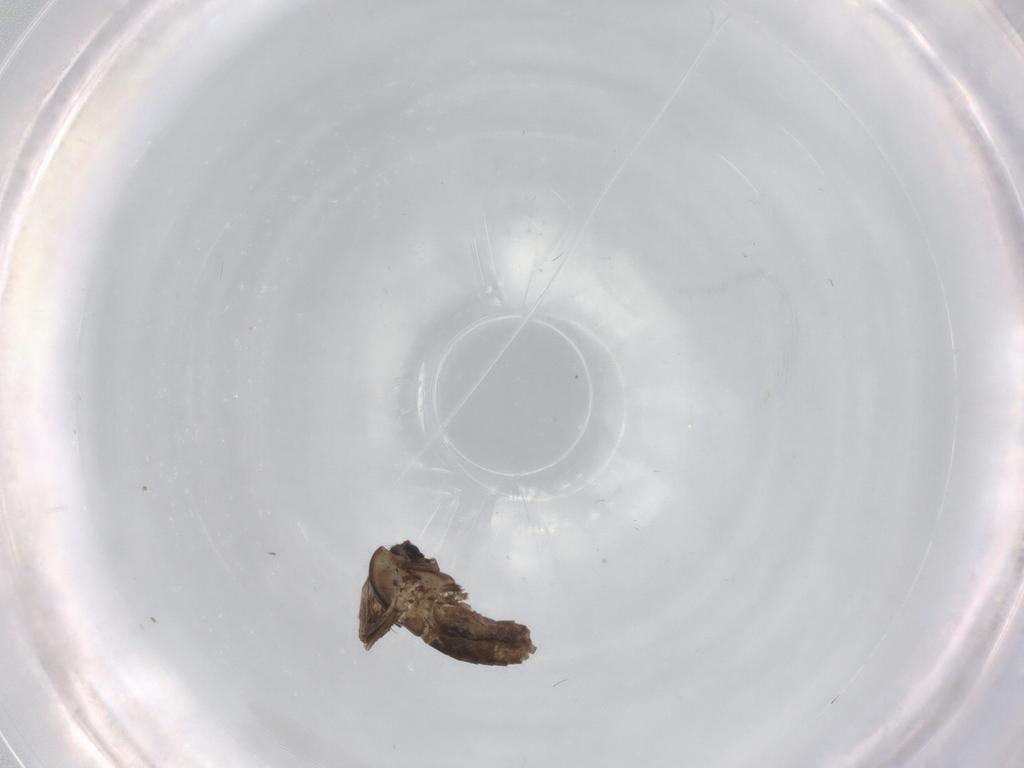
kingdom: Animalia
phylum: Arthropoda
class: Insecta
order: Diptera
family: Chironomidae
